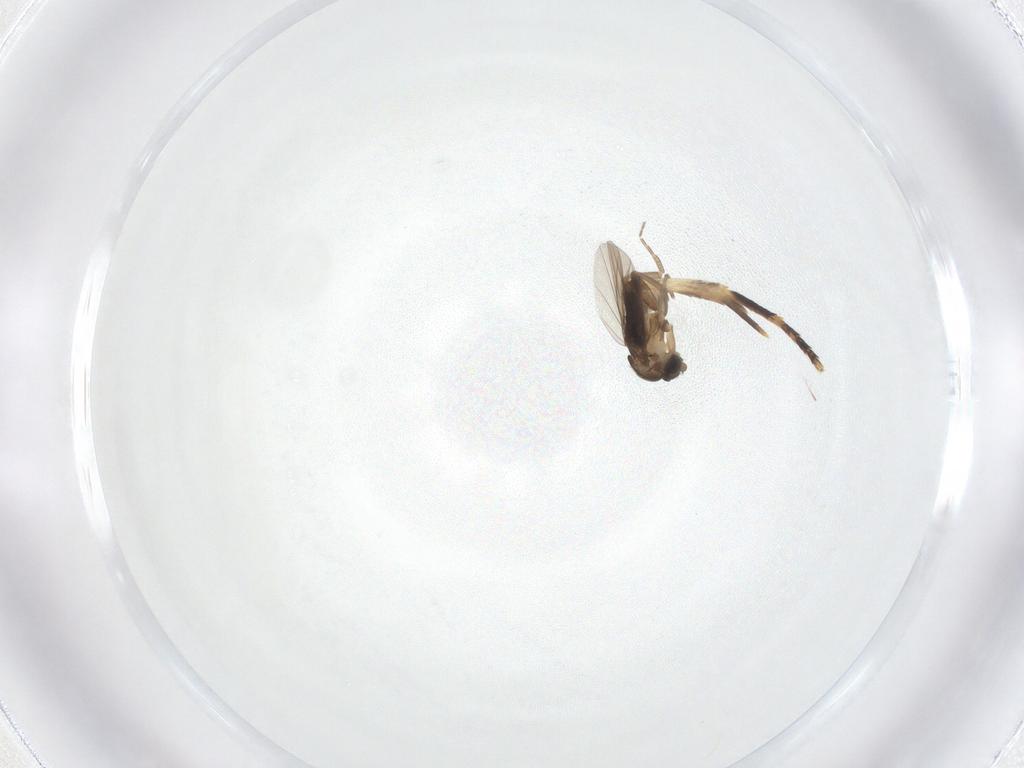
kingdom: Animalia
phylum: Arthropoda
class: Insecta
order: Diptera
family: Phoridae
